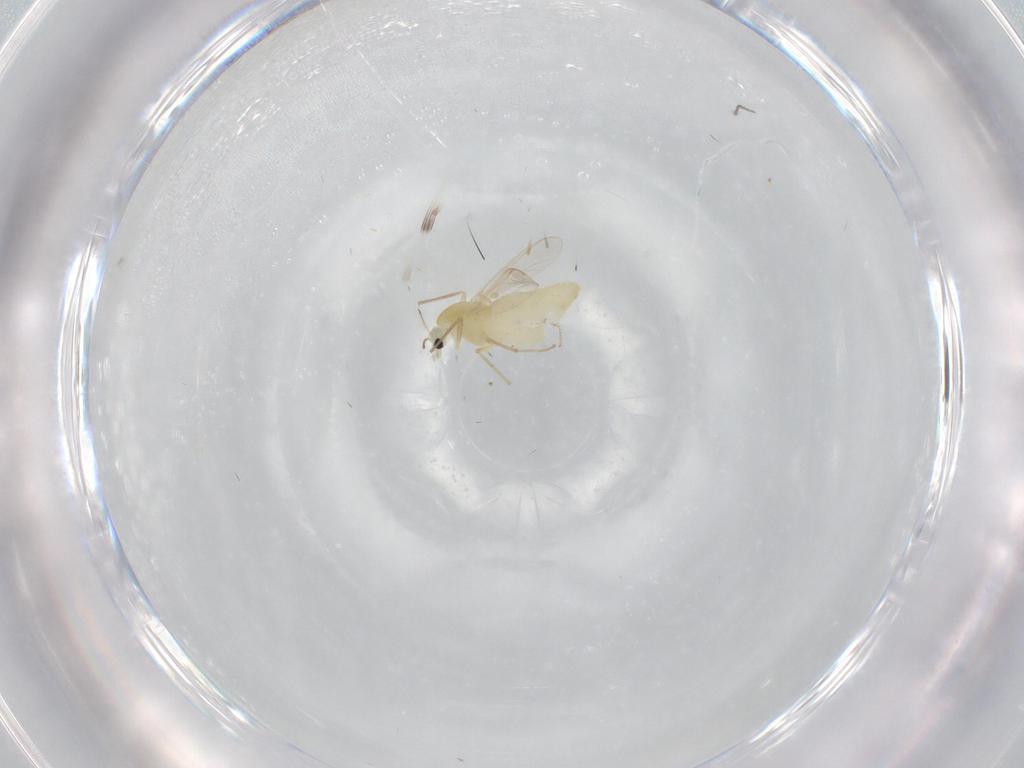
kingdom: Animalia
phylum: Arthropoda
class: Insecta
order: Diptera
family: Chironomidae
